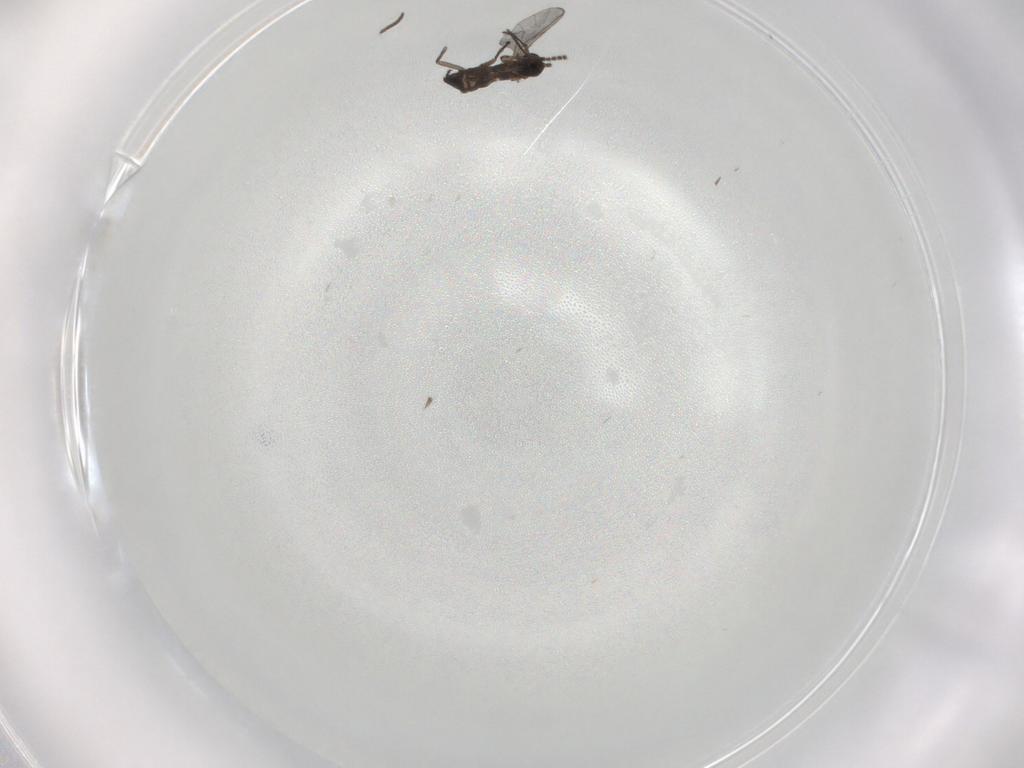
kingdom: Animalia
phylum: Arthropoda
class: Insecta
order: Diptera
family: Sciaridae
